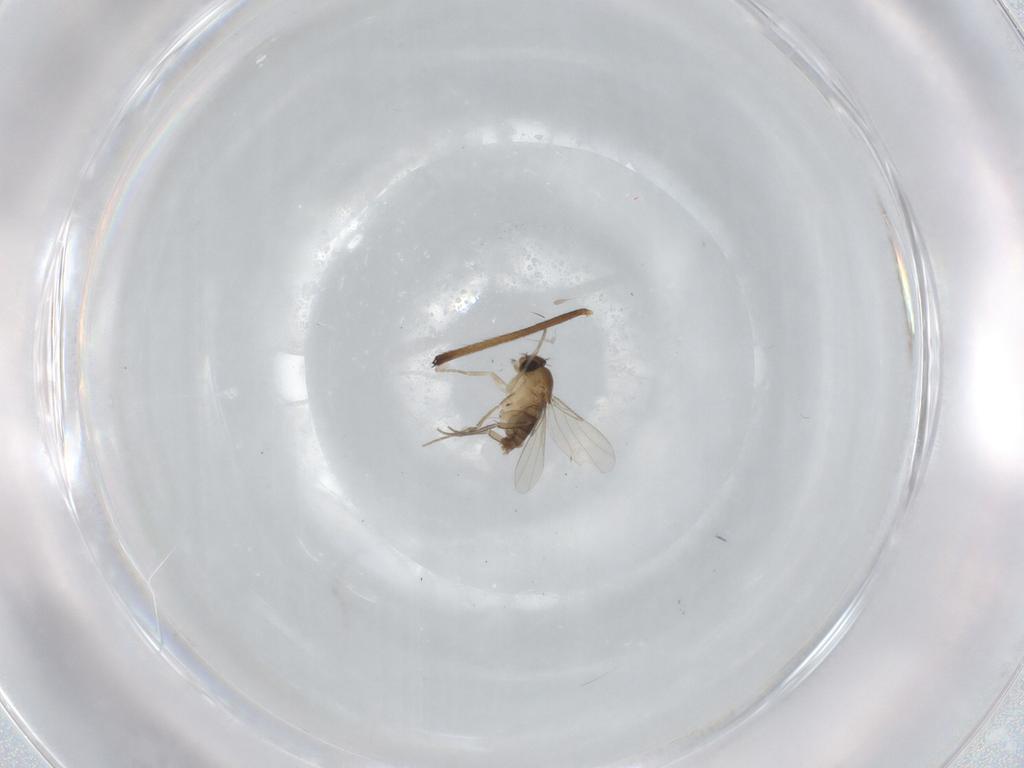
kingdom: Animalia
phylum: Arthropoda
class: Insecta
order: Diptera
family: Phoridae
